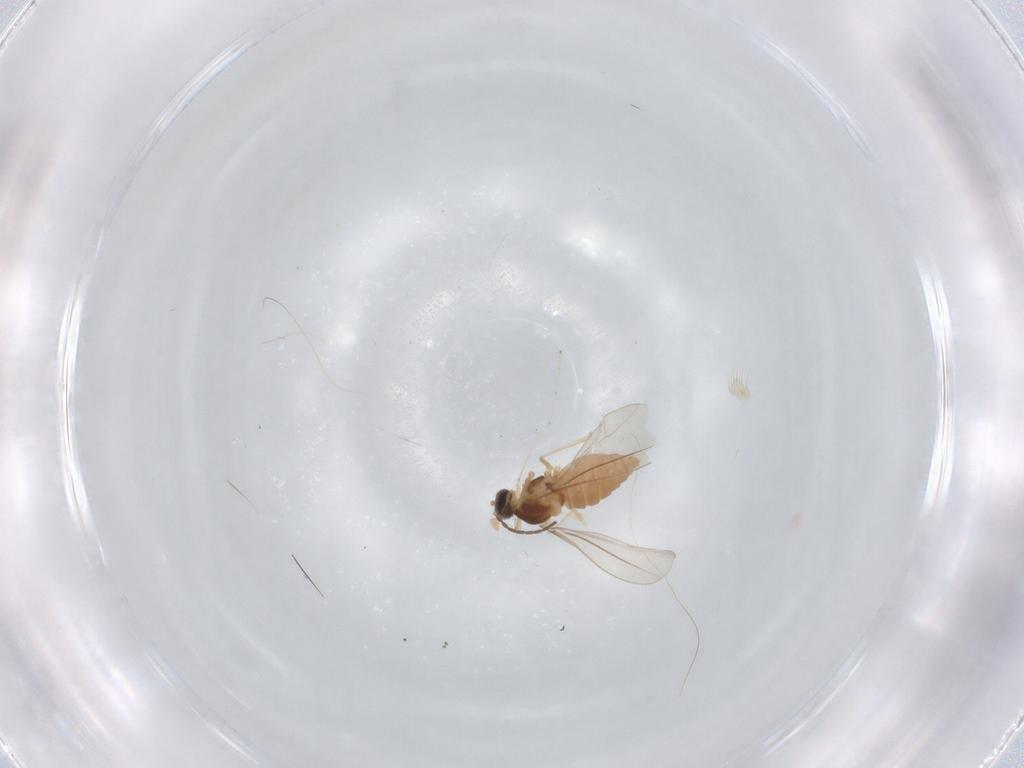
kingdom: Animalia
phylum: Arthropoda
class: Insecta
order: Diptera
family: Cecidomyiidae
